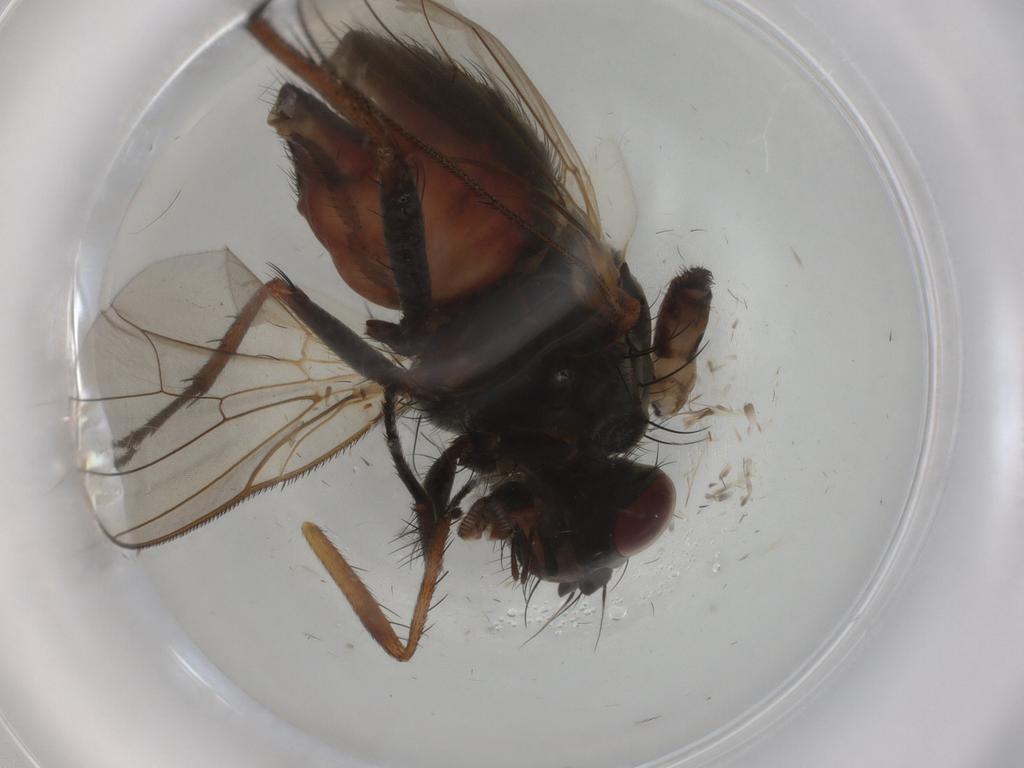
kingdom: Animalia
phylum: Arthropoda
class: Insecta
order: Diptera
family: Anthomyiidae
